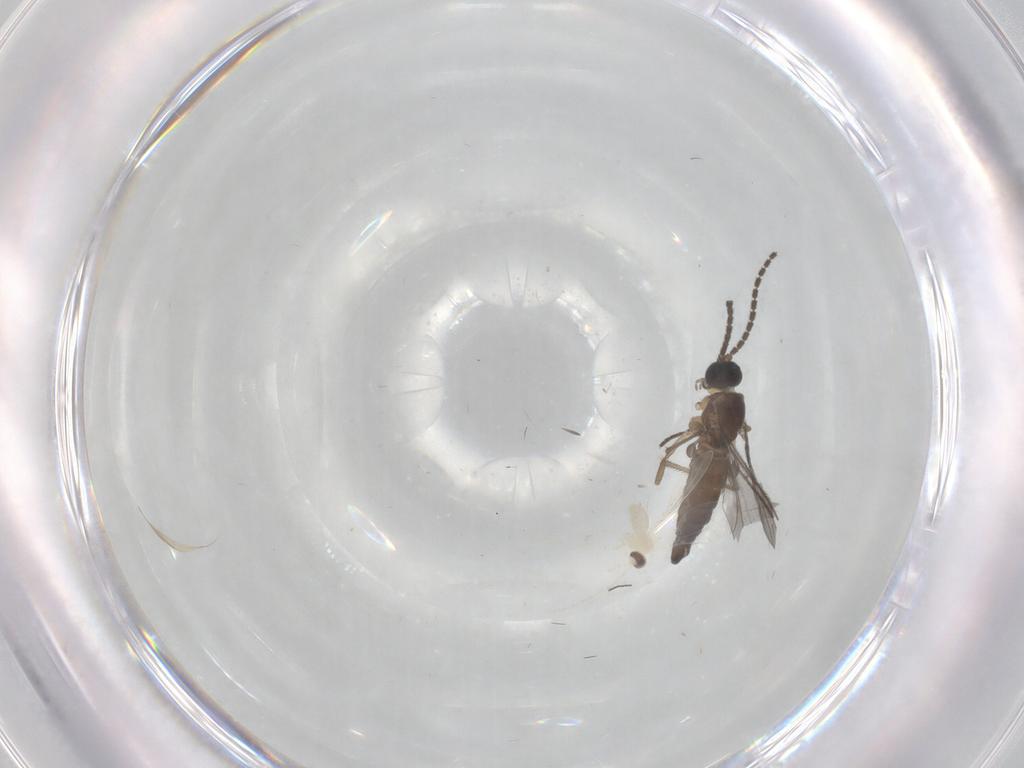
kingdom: Animalia
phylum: Arthropoda
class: Insecta
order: Diptera
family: Sciaridae
